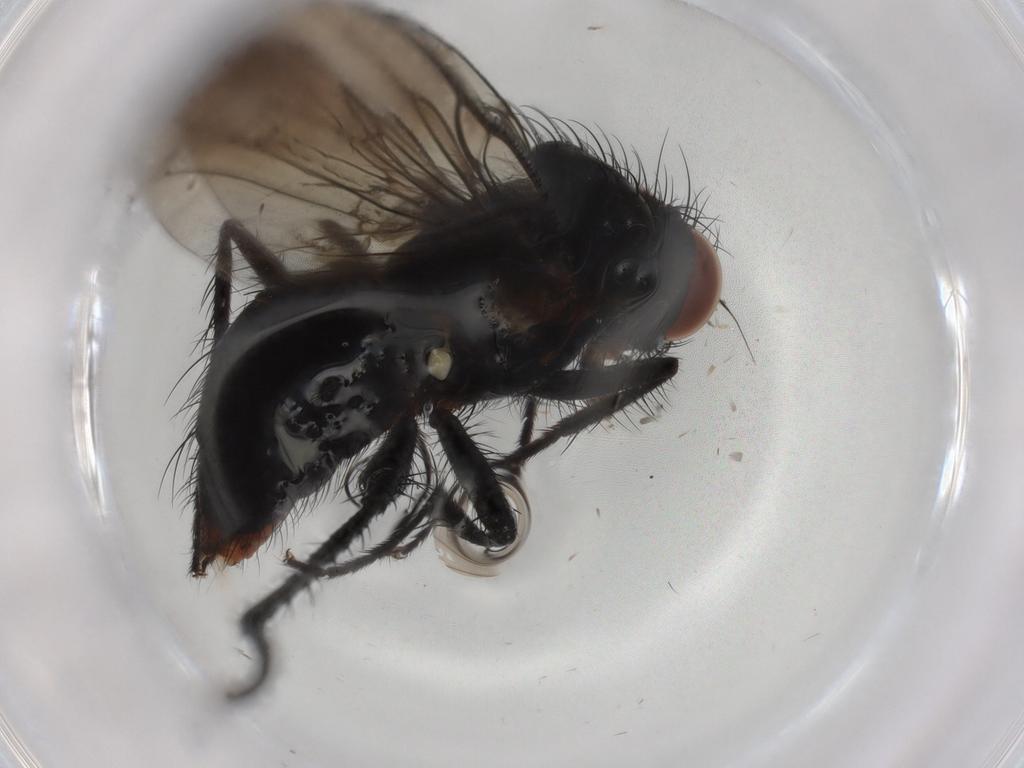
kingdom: Animalia
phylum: Arthropoda
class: Insecta
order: Diptera
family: Anthomyiidae
